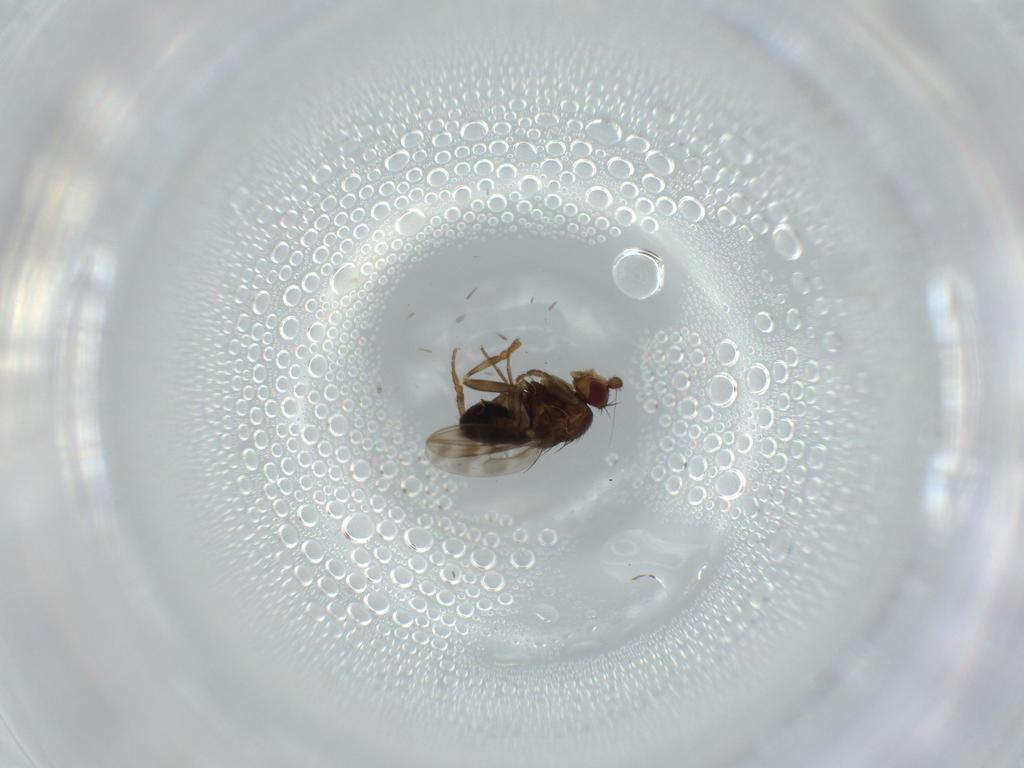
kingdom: Animalia
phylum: Arthropoda
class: Insecta
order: Diptera
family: Sphaeroceridae
